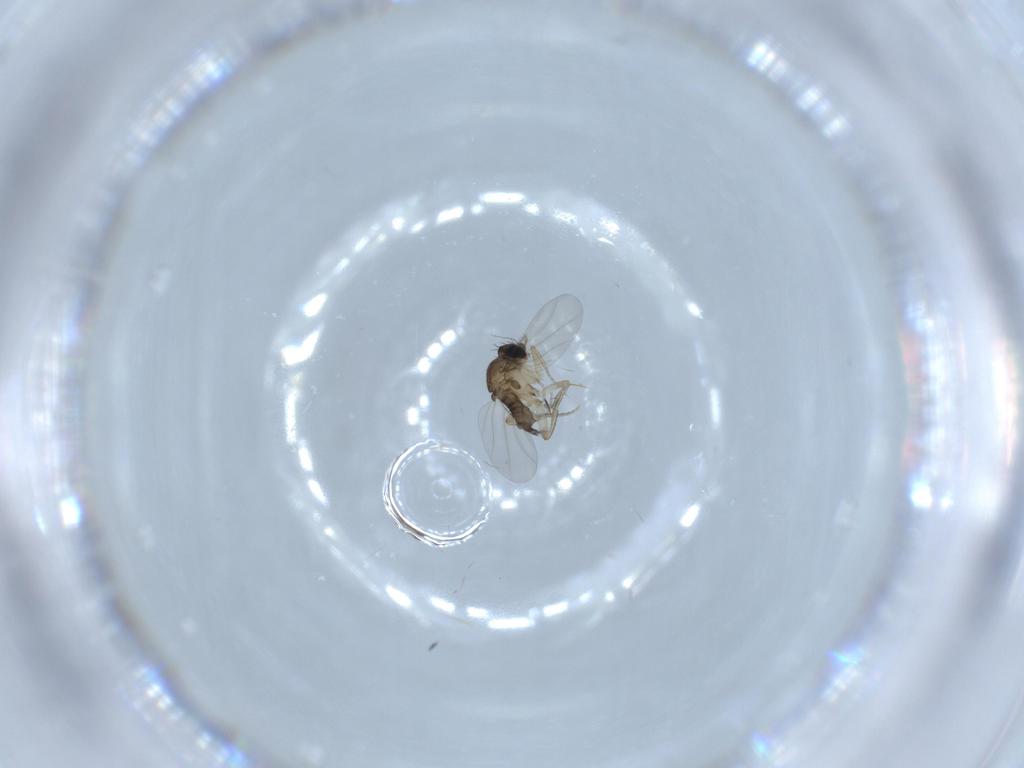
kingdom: Animalia
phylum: Arthropoda
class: Insecta
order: Diptera
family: Phoridae
